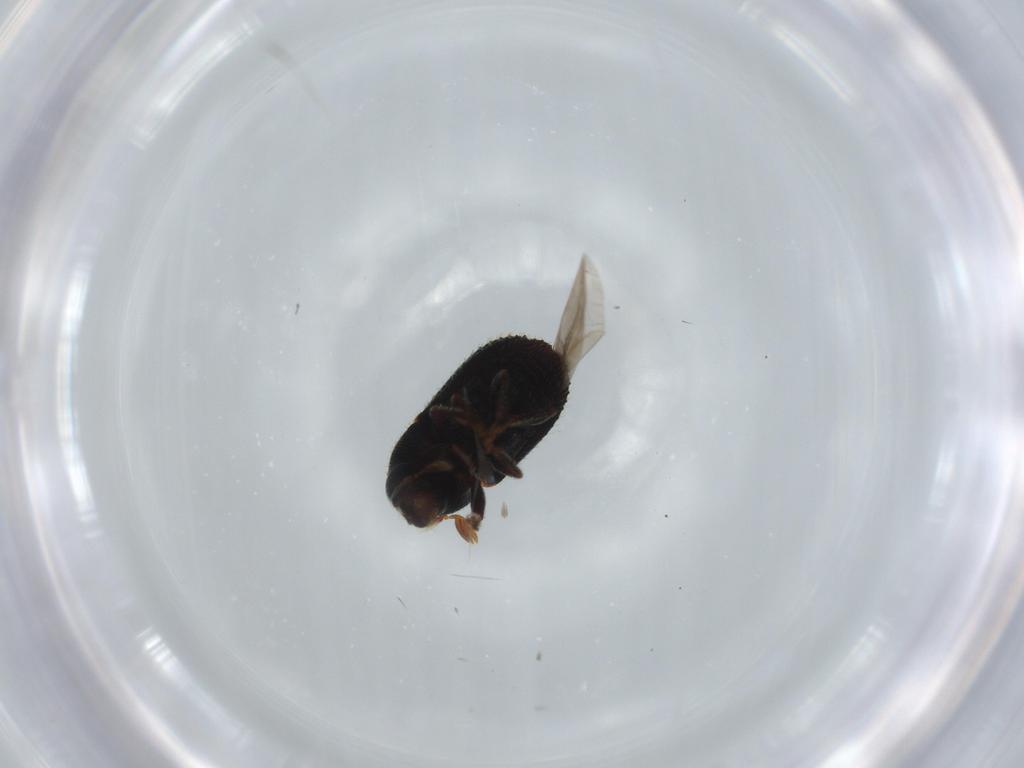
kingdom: Animalia
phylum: Arthropoda
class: Insecta
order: Coleoptera
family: Curculionidae
